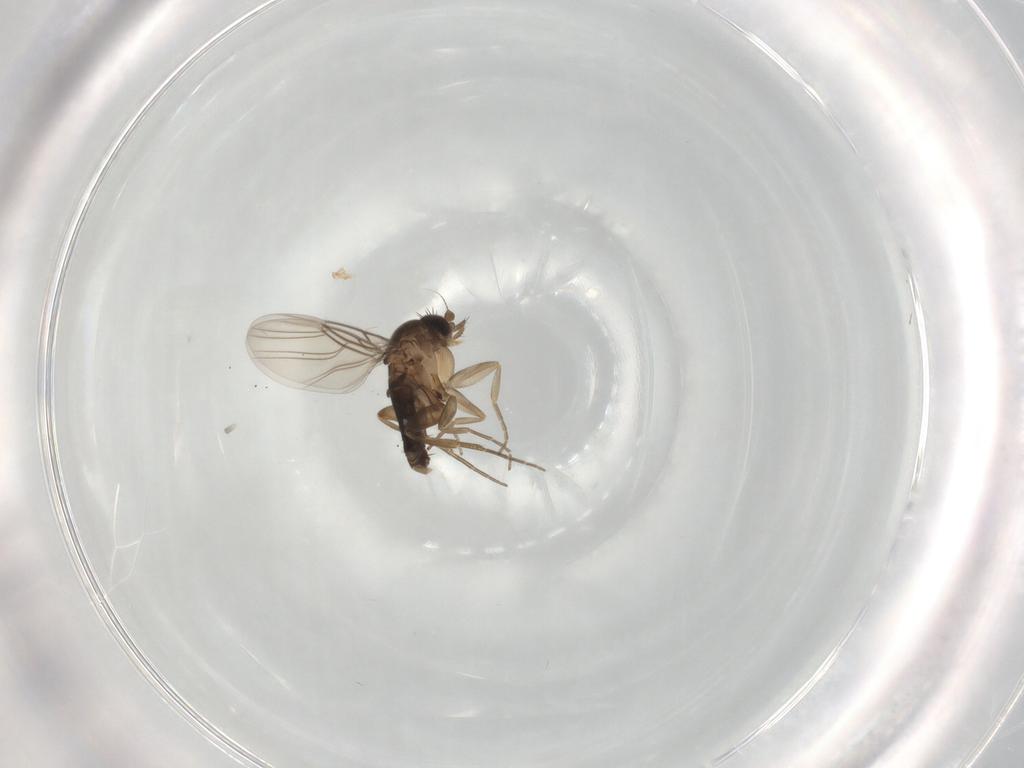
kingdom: Animalia
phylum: Arthropoda
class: Insecta
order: Diptera
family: Phoridae
